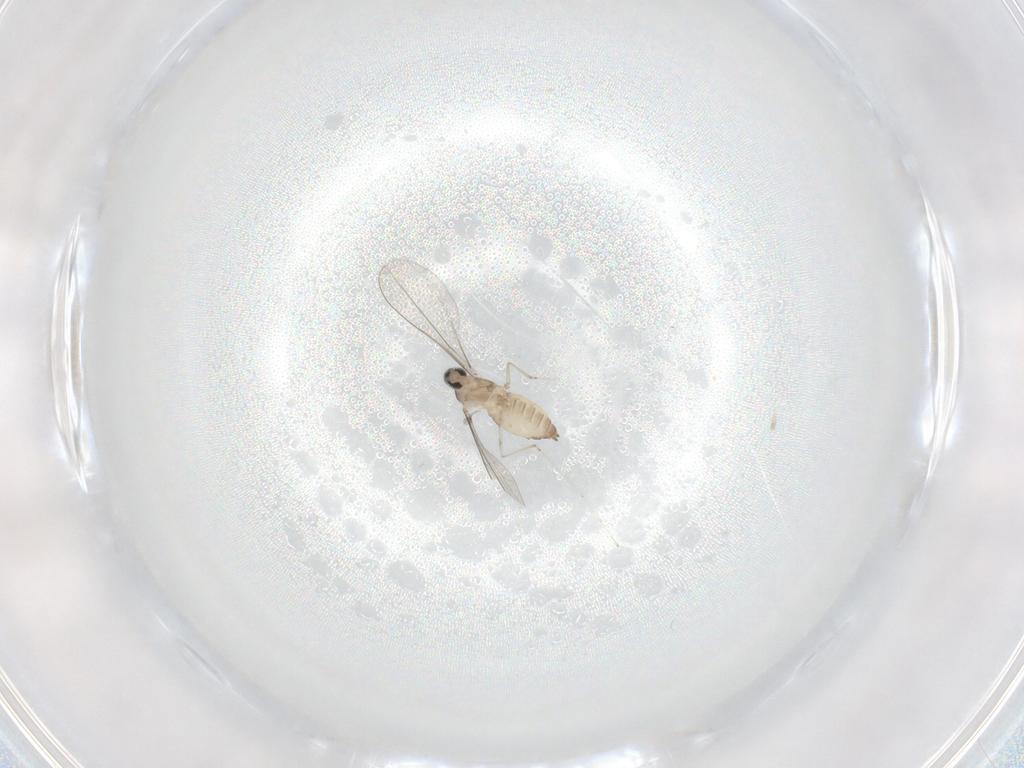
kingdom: Animalia
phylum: Arthropoda
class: Insecta
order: Diptera
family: Cecidomyiidae
